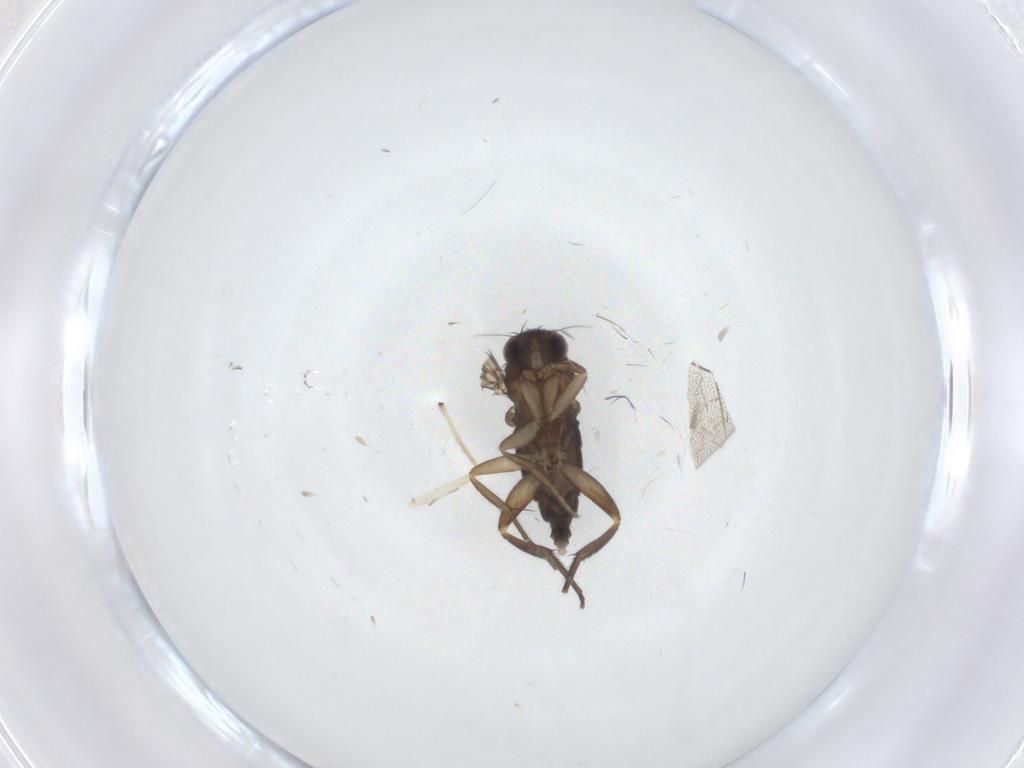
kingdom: Animalia
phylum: Arthropoda
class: Insecta
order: Diptera
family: Phoridae
